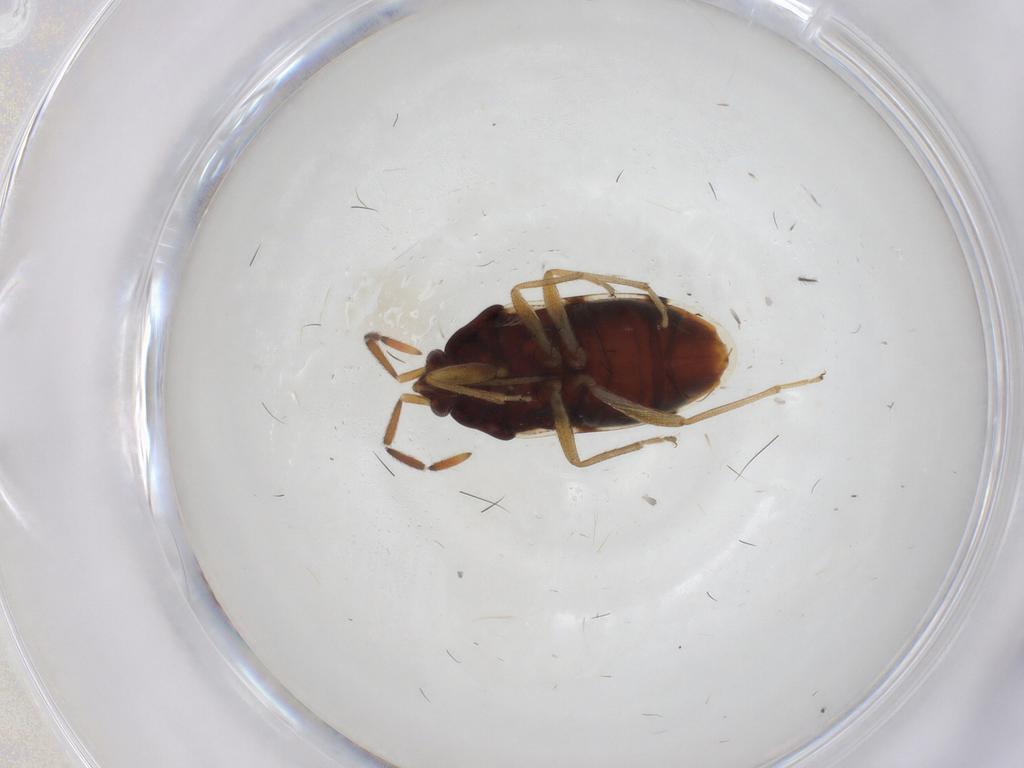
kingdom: Animalia
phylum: Arthropoda
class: Insecta
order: Hemiptera
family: Rhyparochromidae
